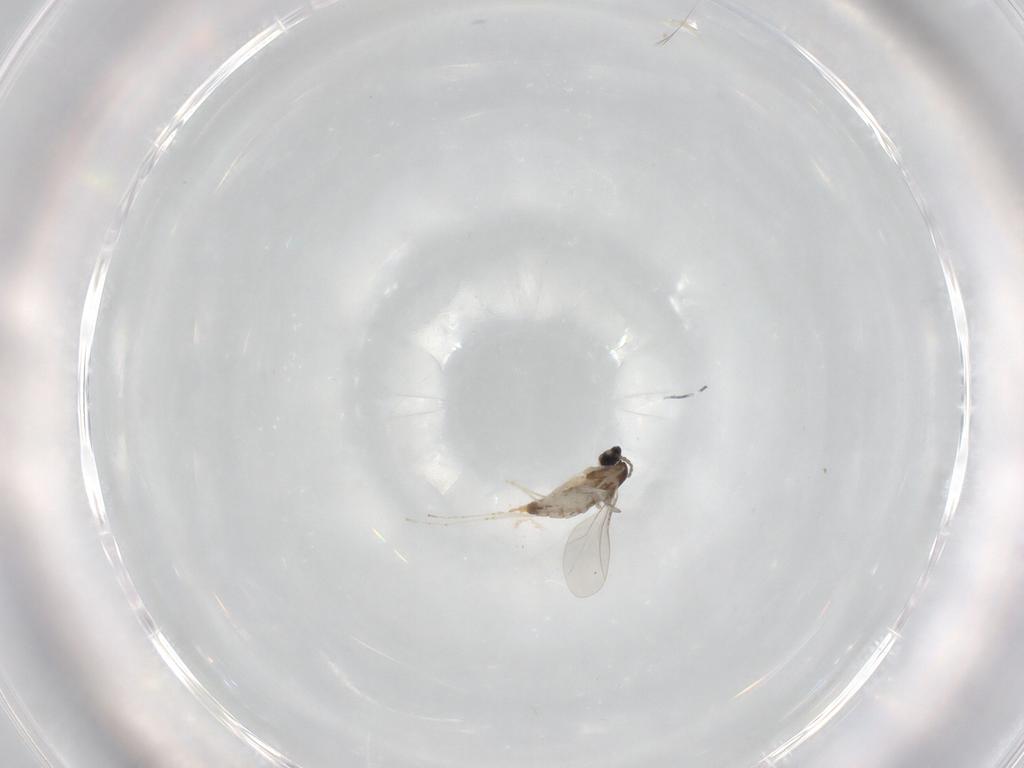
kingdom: Animalia
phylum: Arthropoda
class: Insecta
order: Diptera
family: Cecidomyiidae
